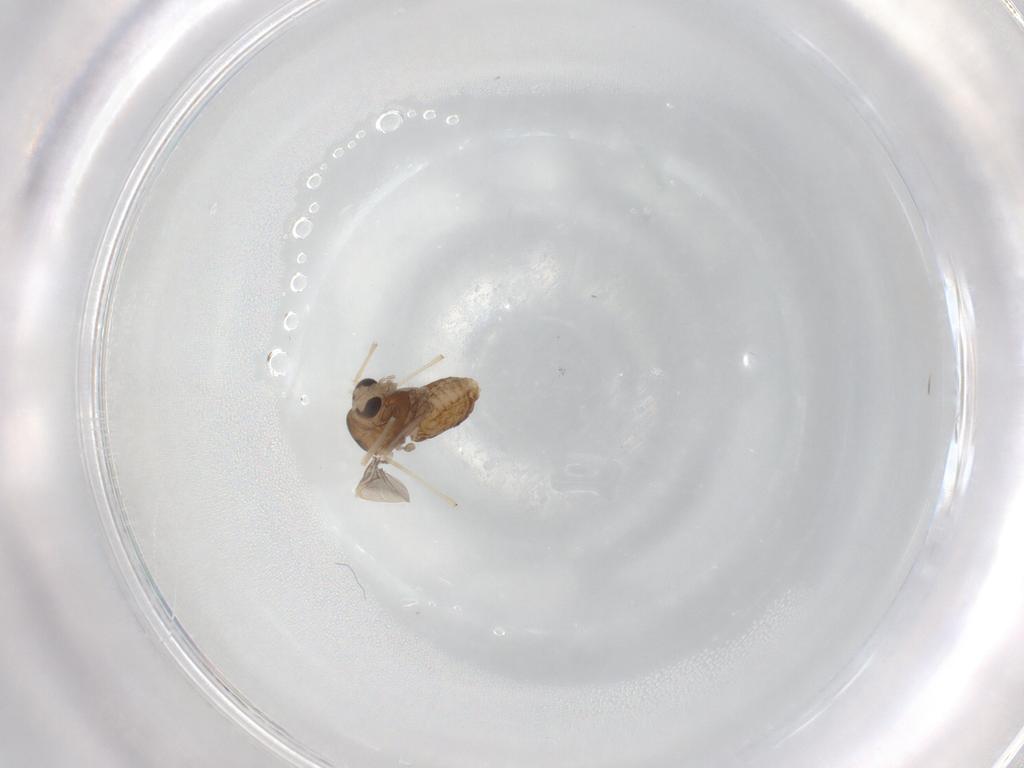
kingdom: Animalia
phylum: Arthropoda
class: Insecta
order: Diptera
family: Chironomidae
